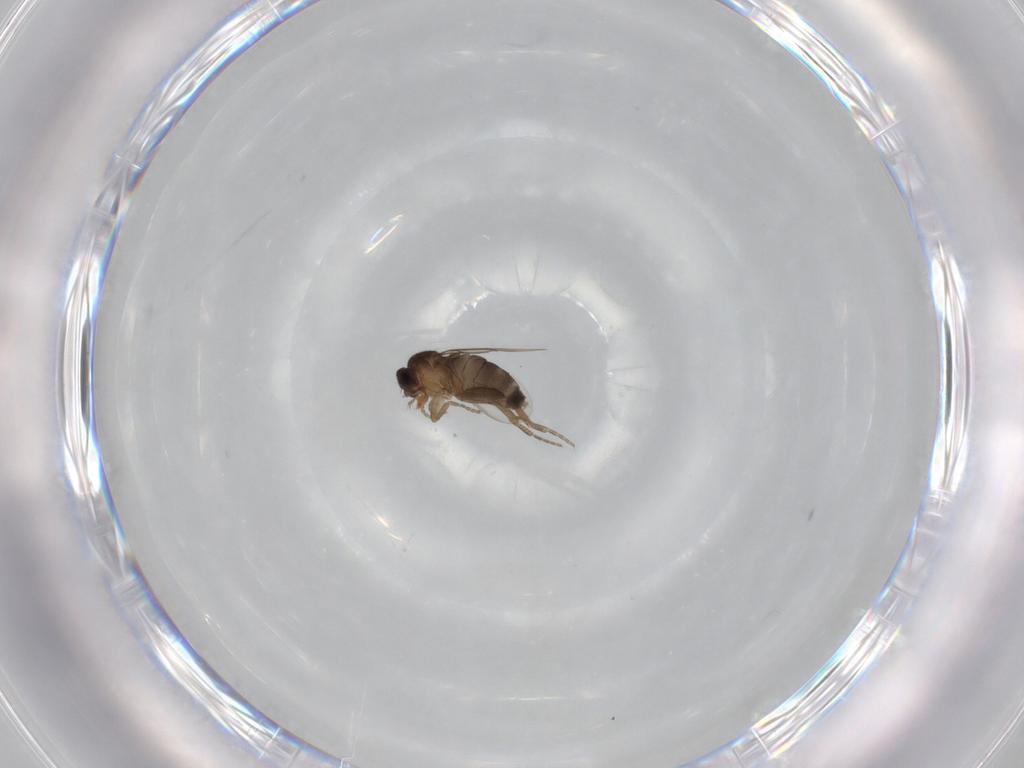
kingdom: Animalia
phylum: Arthropoda
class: Insecta
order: Diptera
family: Phoridae
